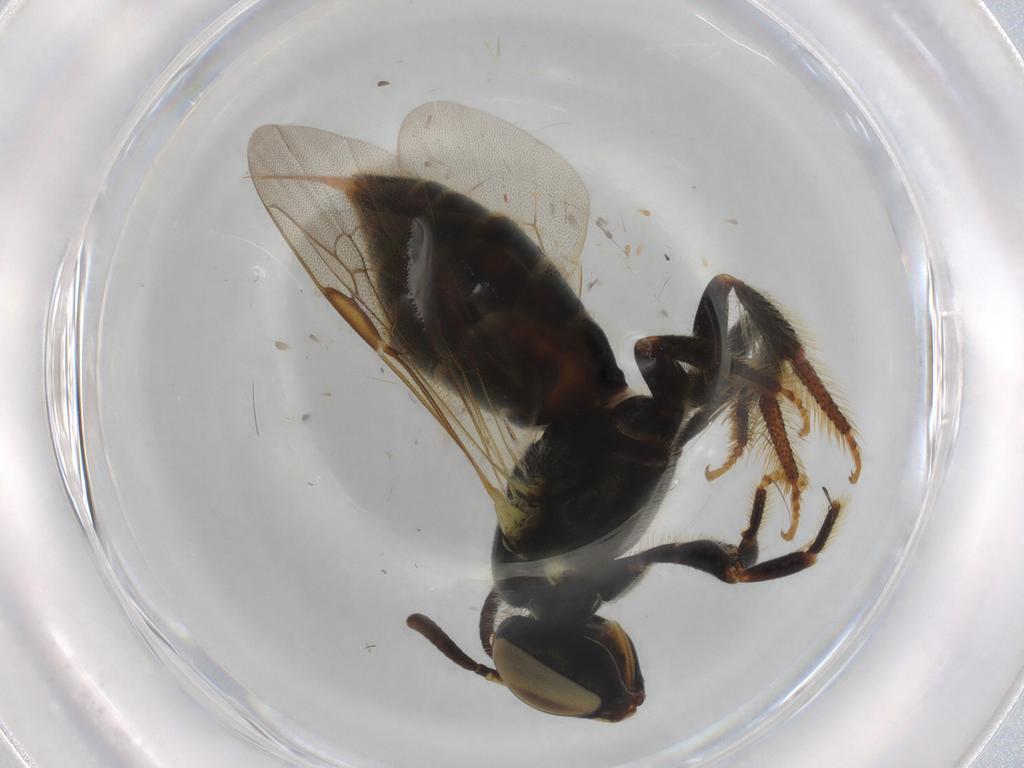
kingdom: Animalia
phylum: Arthropoda
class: Insecta
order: Hymenoptera
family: Apidae
